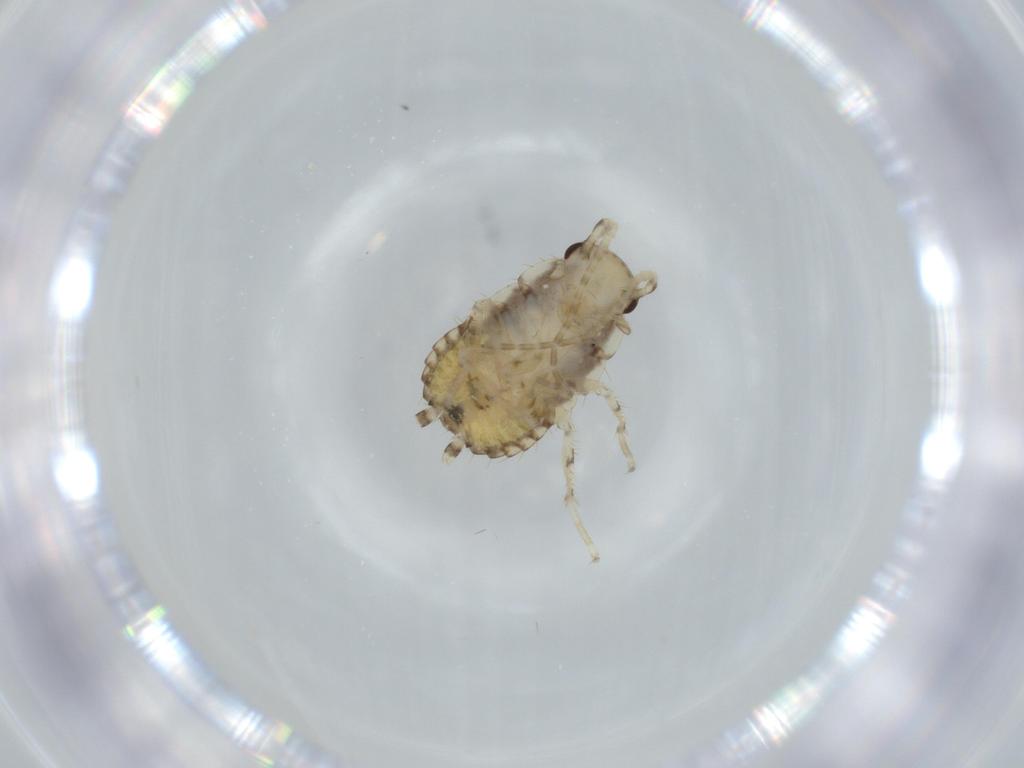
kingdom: Animalia
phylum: Arthropoda
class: Insecta
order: Blattodea
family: Ectobiidae
